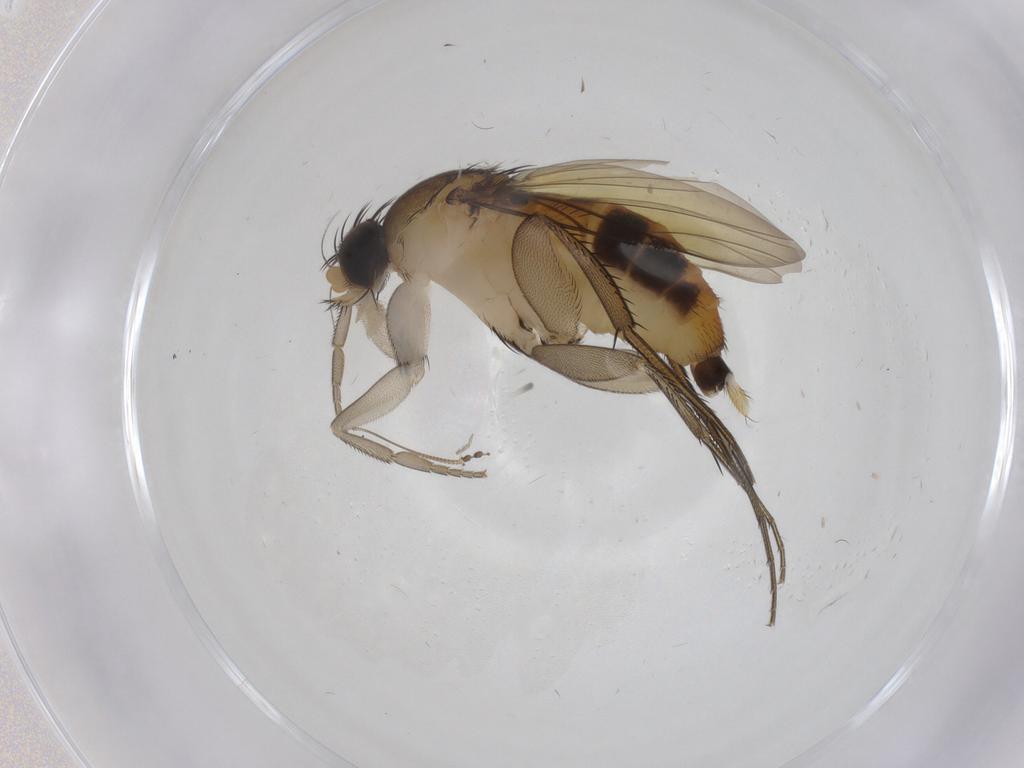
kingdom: Animalia
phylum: Arthropoda
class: Insecta
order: Diptera
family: Phoridae
